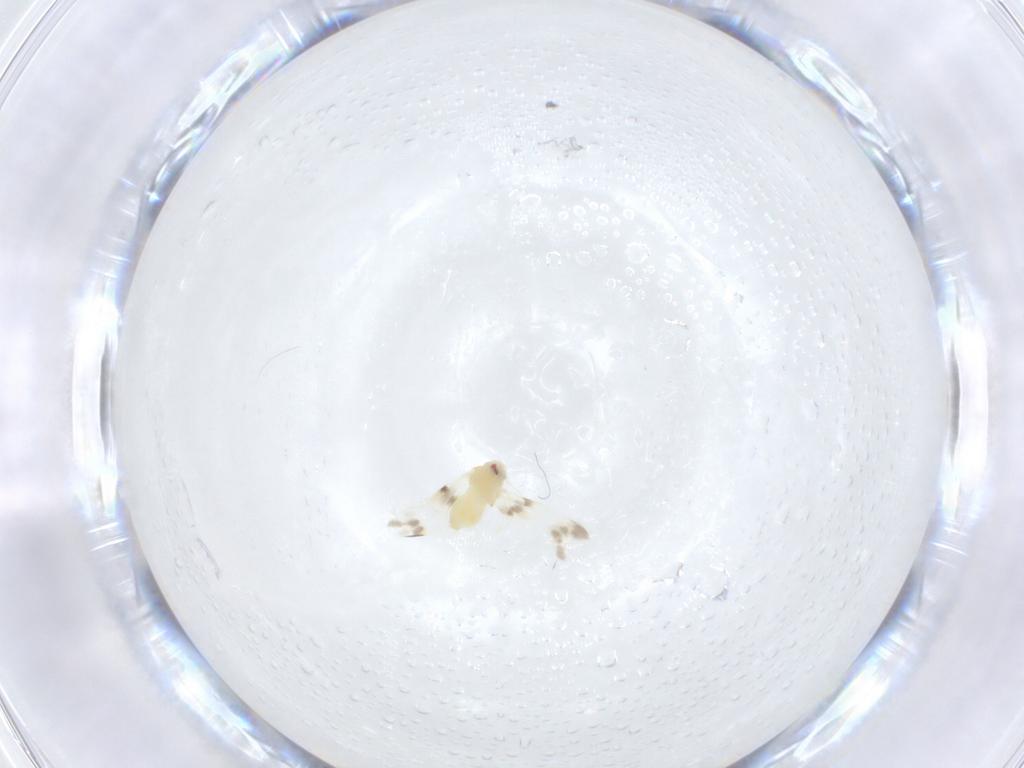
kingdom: Animalia
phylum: Arthropoda
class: Insecta
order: Hemiptera
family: Aleyrodidae
